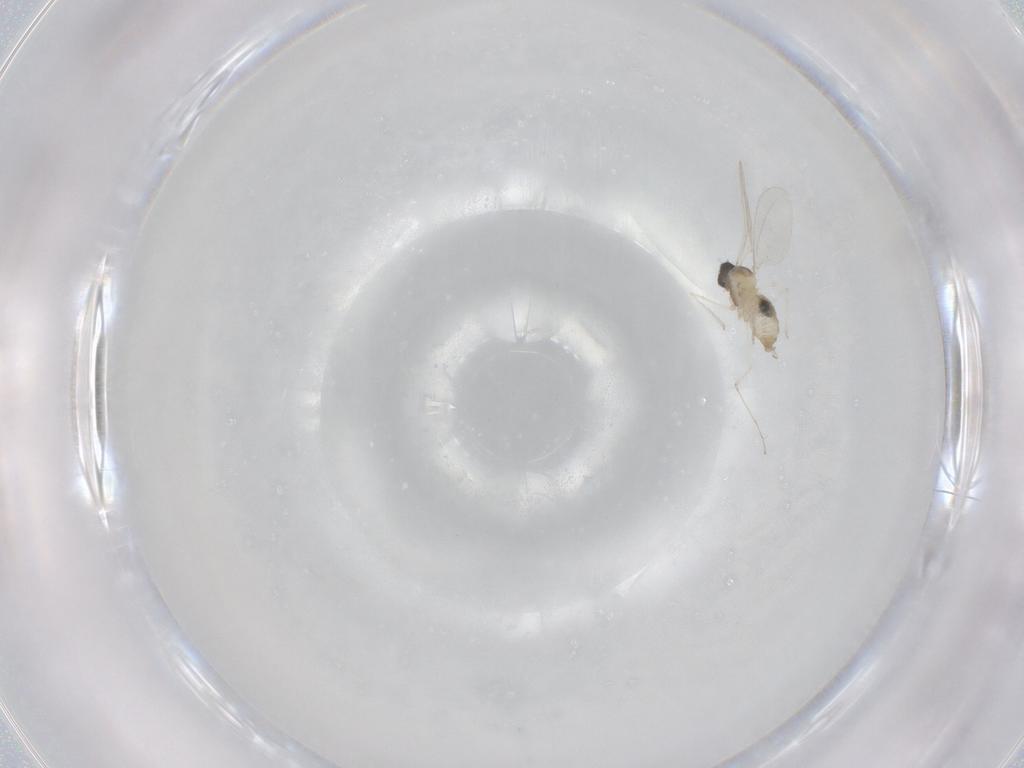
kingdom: Animalia
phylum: Arthropoda
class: Insecta
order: Diptera
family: Cecidomyiidae
